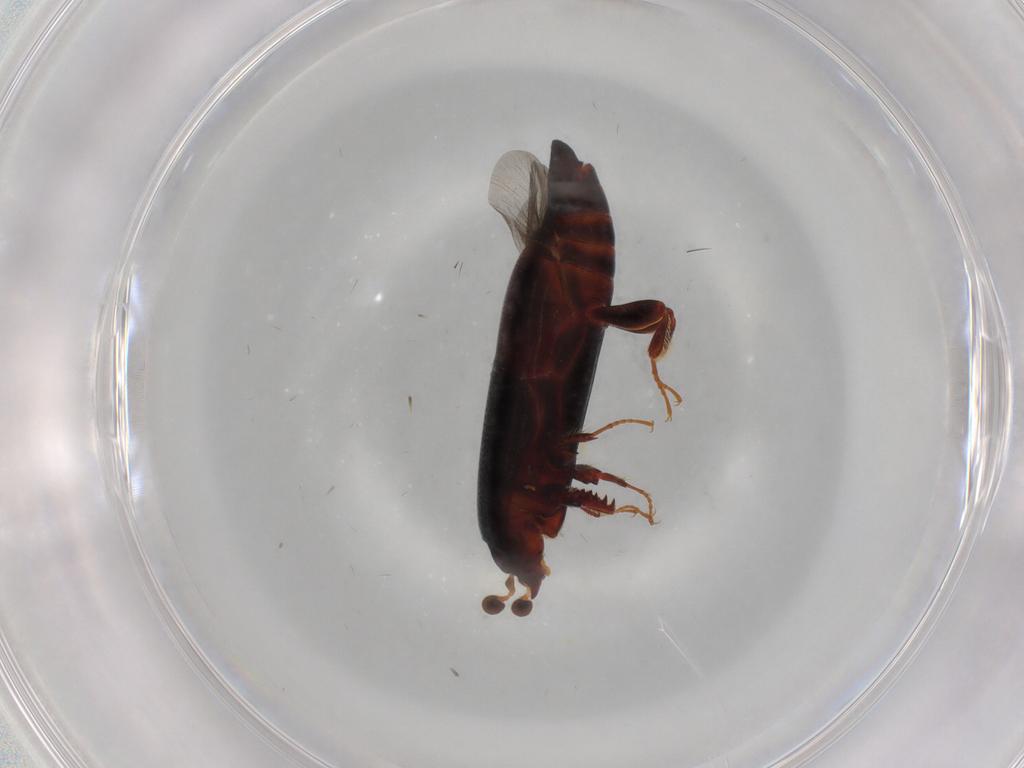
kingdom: Animalia
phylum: Arthropoda
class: Insecta
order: Coleoptera
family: Histeridae
